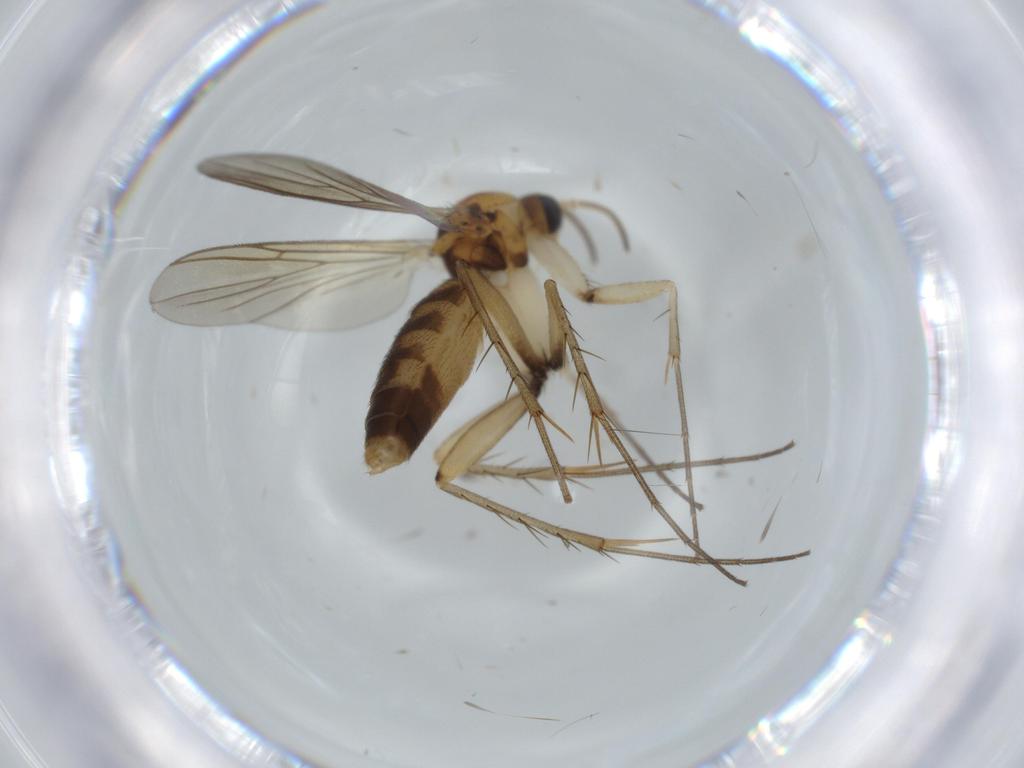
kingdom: Animalia
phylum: Arthropoda
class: Insecta
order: Diptera
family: Mycetophilidae
